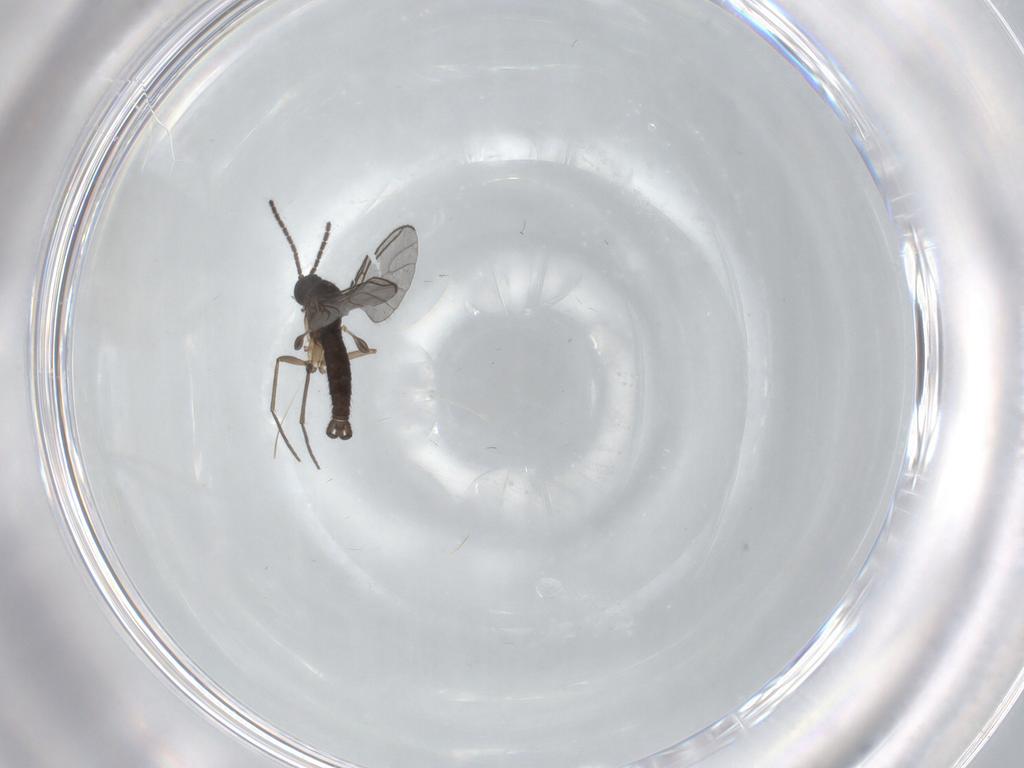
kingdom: Animalia
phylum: Arthropoda
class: Insecta
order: Diptera
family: Sciaridae
